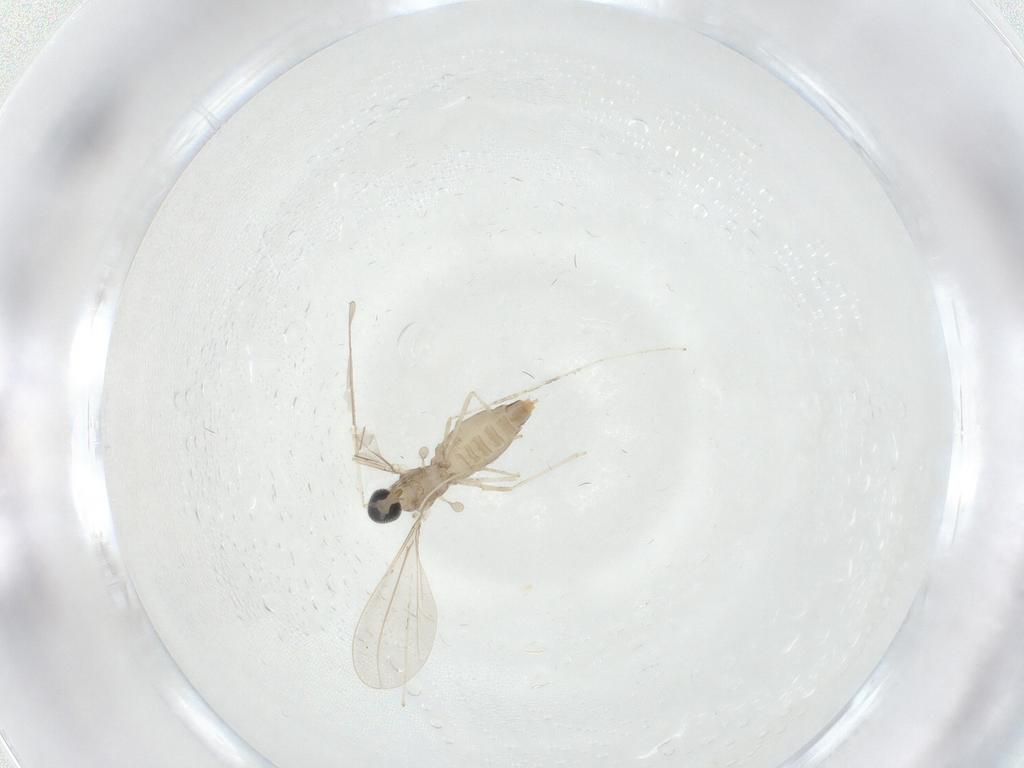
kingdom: Animalia
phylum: Arthropoda
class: Insecta
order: Diptera
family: Cecidomyiidae
